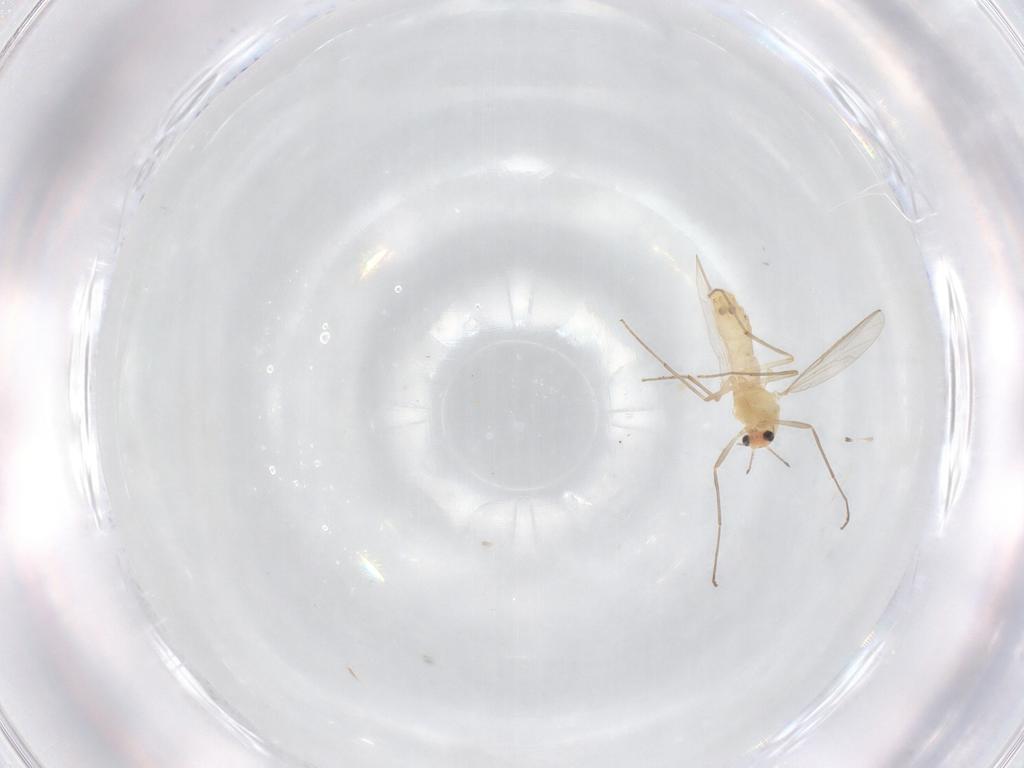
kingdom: Animalia
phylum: Arthropoda
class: Insecta
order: Diptera
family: Chironomidae
